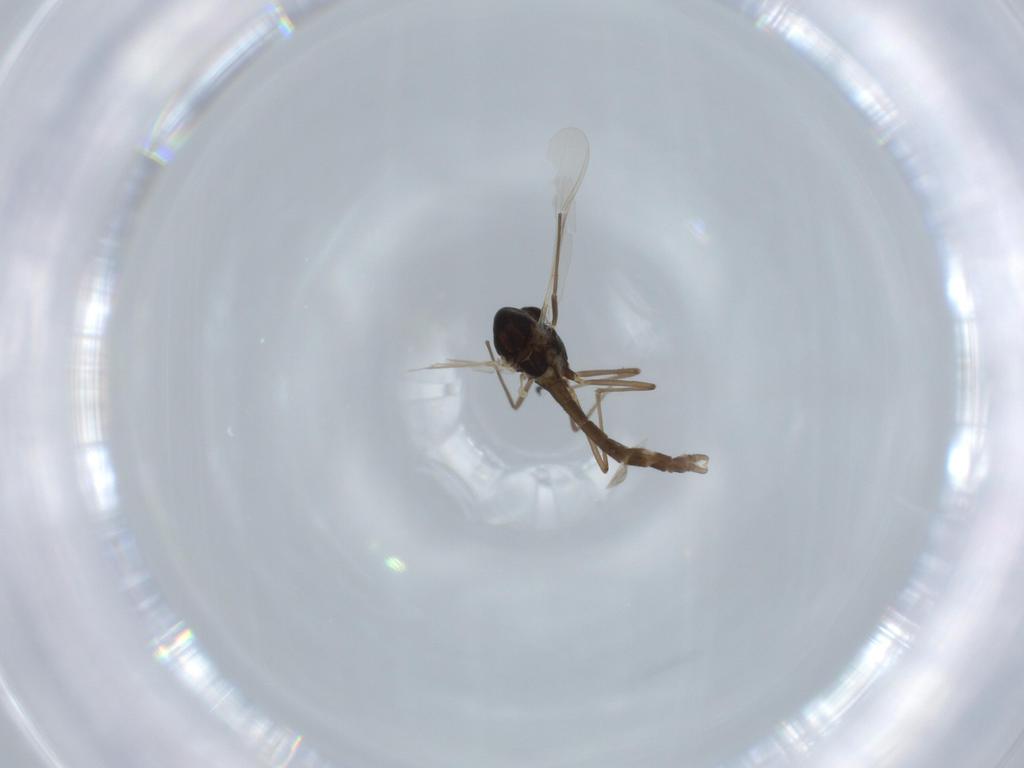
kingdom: Animalia
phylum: Arthropoda
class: Insecta
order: Diptera
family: Chironomidae
